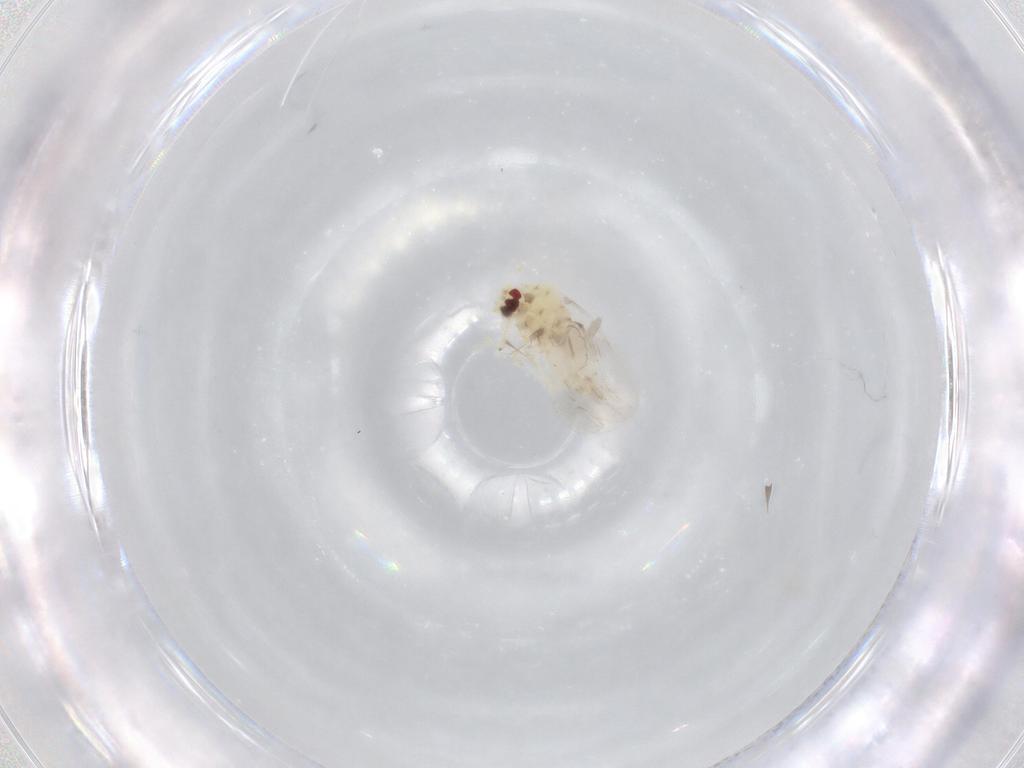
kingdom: Animalia
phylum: Arthropoda
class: Insecta
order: Hemiptera
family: Aleyrodidae
